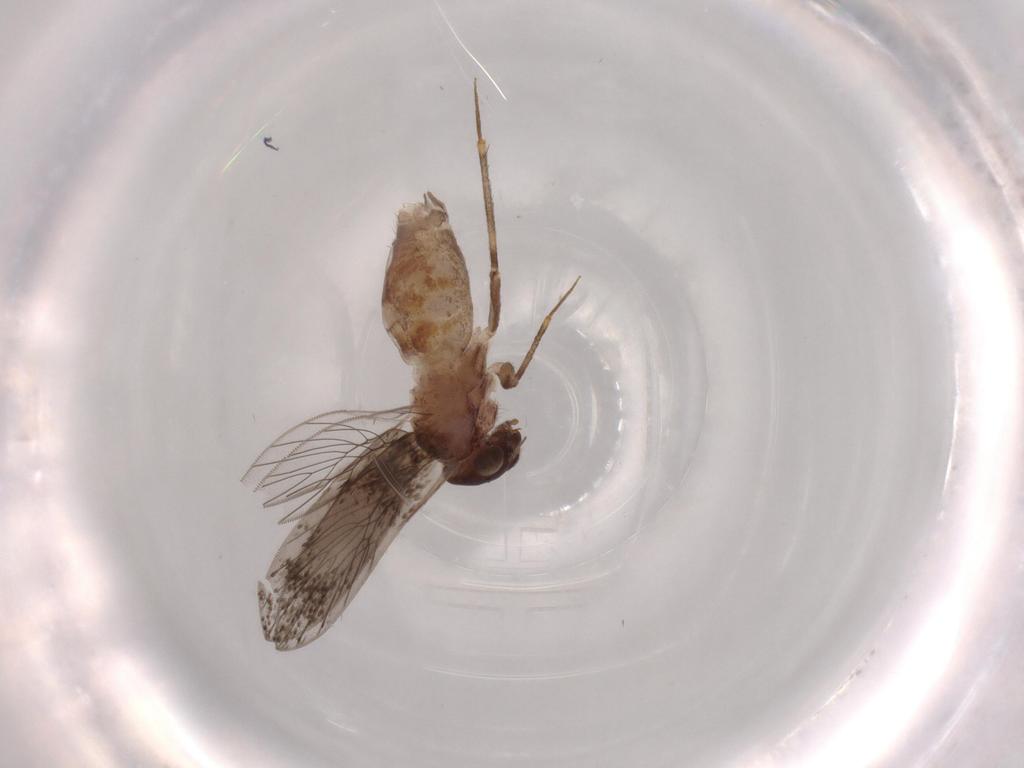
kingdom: Animalia
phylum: Arthropoda
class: Insecta
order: Psocodea
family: Lepidopsocidae
